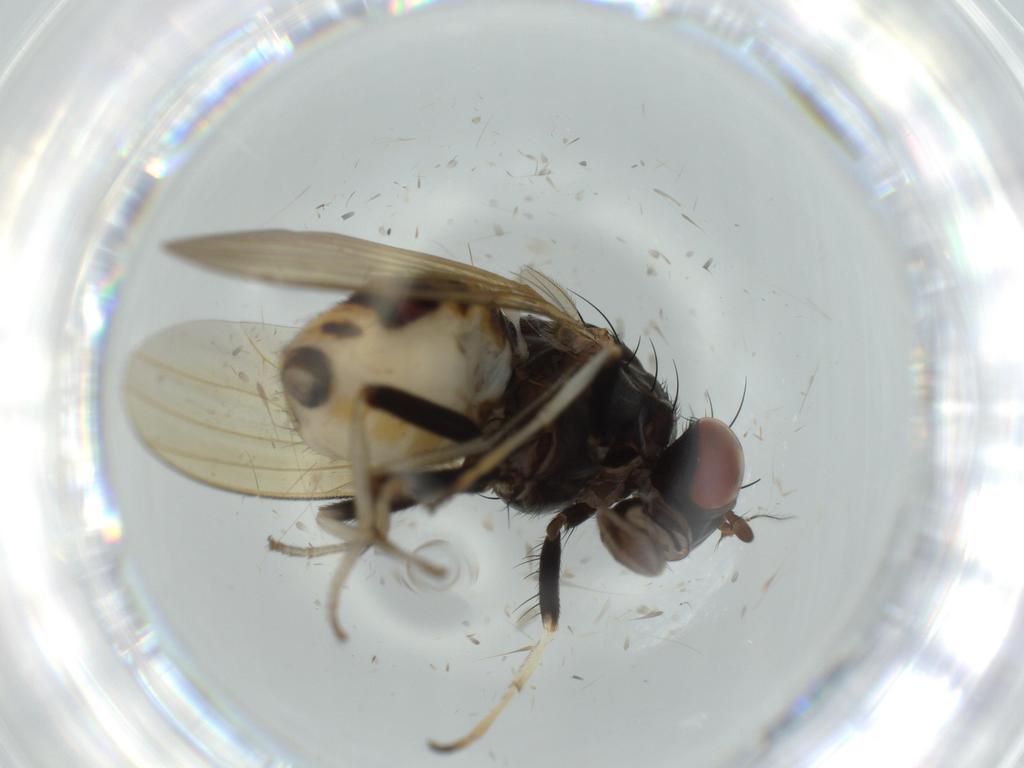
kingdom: Animalia
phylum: Arthropoda
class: Insecta
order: Diptera
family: Chironomidae
